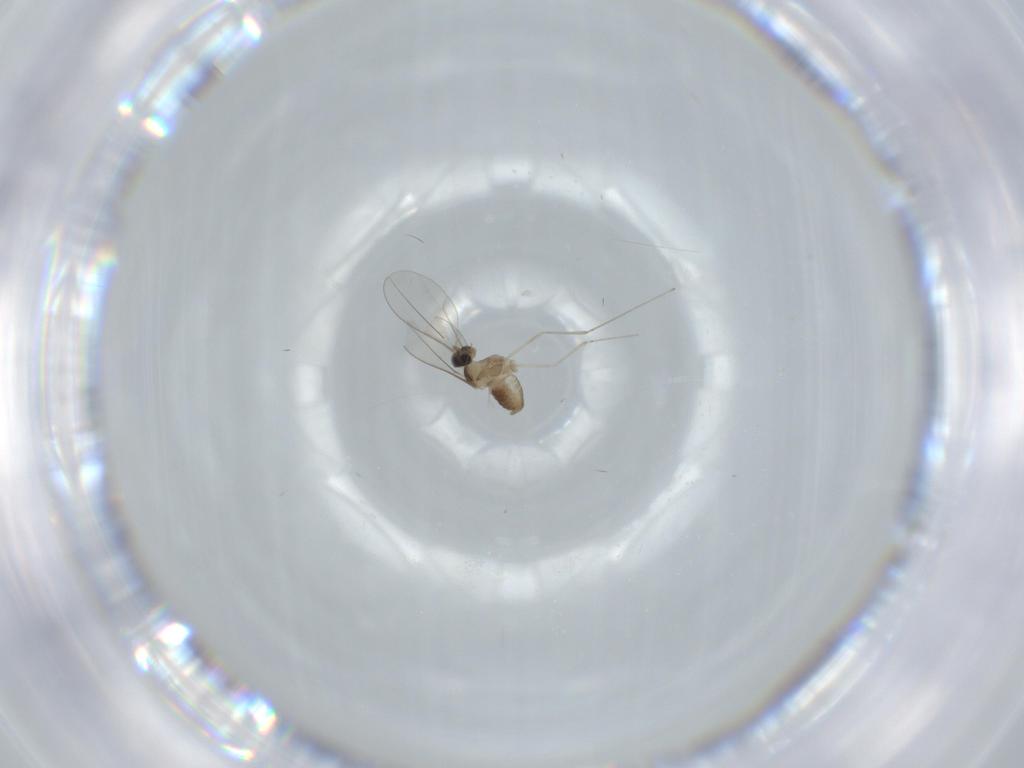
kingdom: Animalia
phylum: Arthropoda
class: Insecta
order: Diptera
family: Cecidomyiidae
